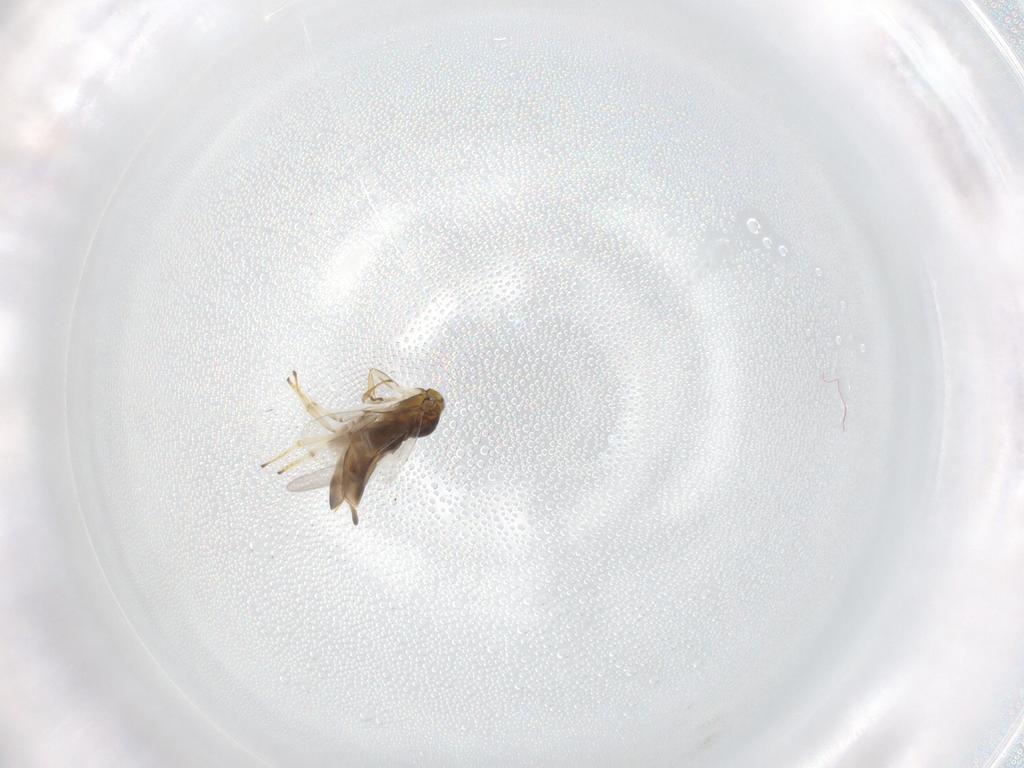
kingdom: Animalia
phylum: Arthropoda
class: Insecta
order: Hymenoptera
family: Encyrtidae
